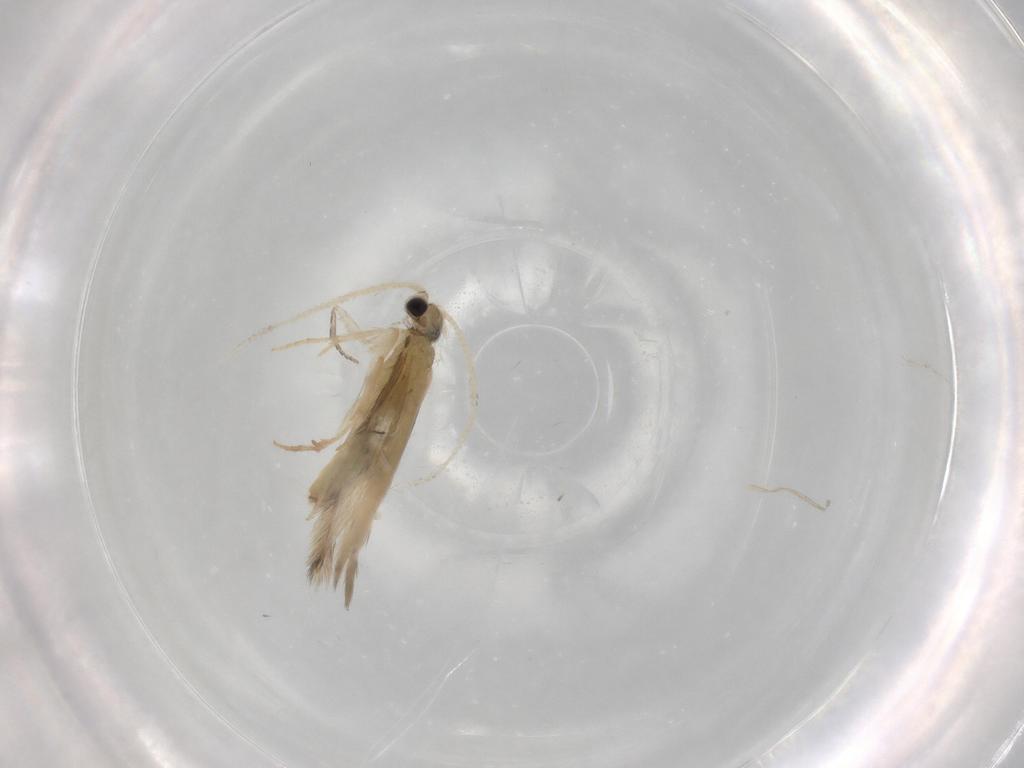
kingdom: Animalia
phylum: Arthropoda
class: Insecta
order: Trichoptera
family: Hydroptilidae
